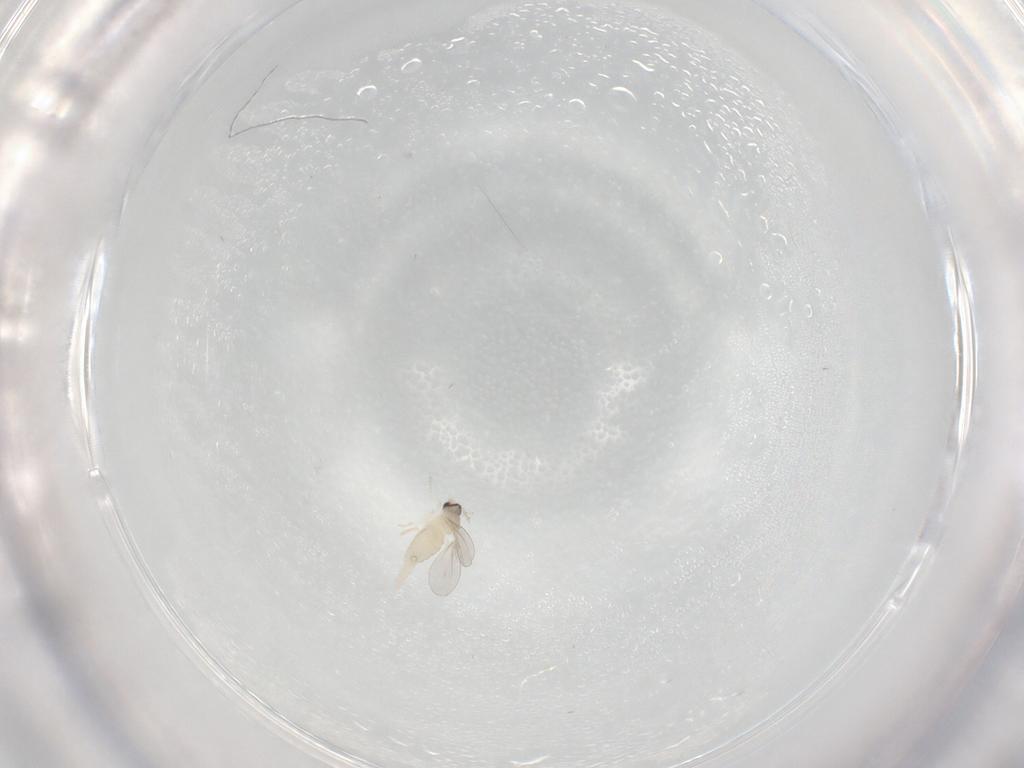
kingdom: Animalia
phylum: Arthropoda
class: Insecta
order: Diptera
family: Cecidomyiidae
